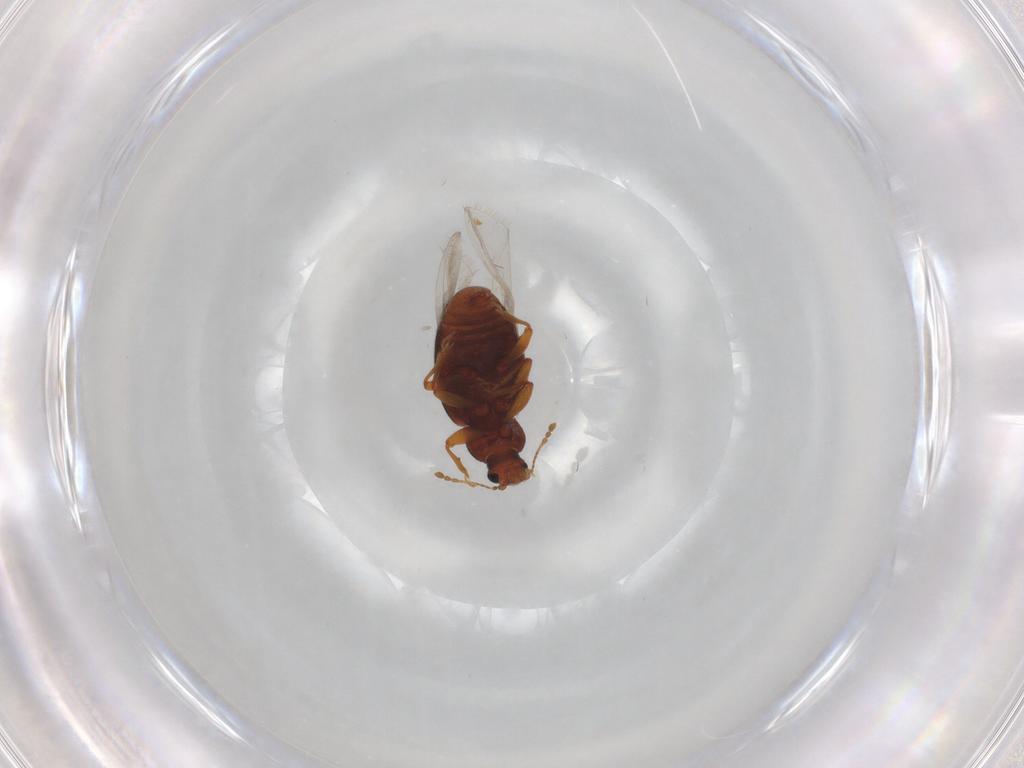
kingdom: Animalia
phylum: Arthropoda
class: Insecta
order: Coleoptera
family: Latridiidae
